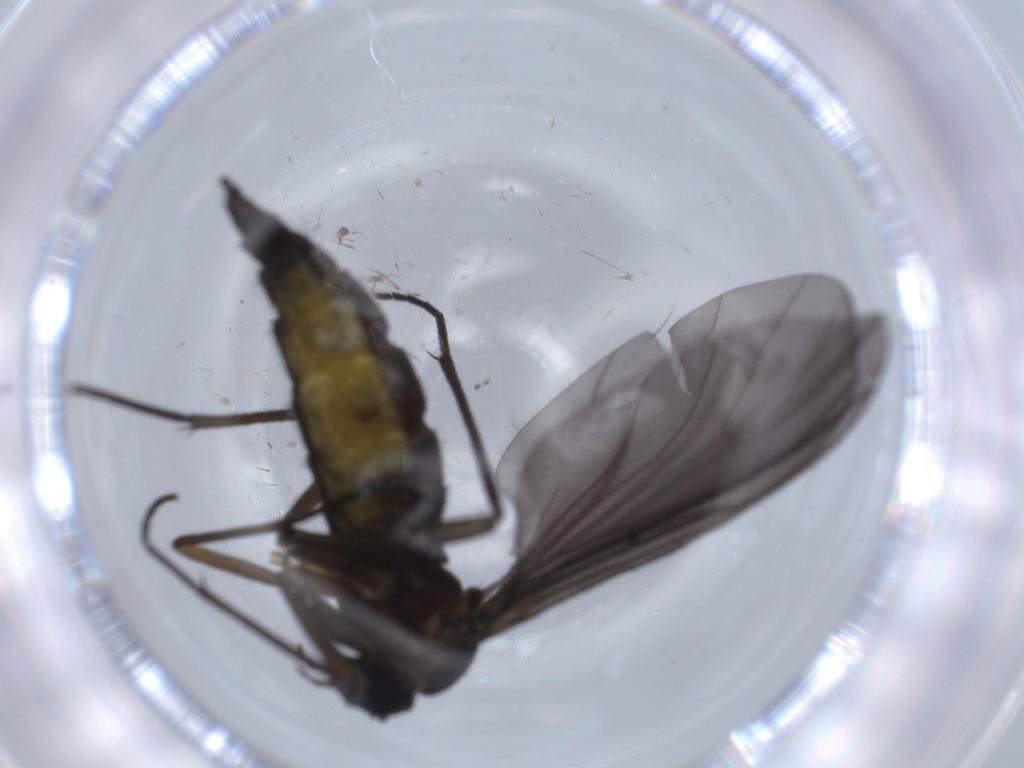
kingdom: Animalia
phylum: Arthropoda
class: Insecta
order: Diptera
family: Sciaridae
